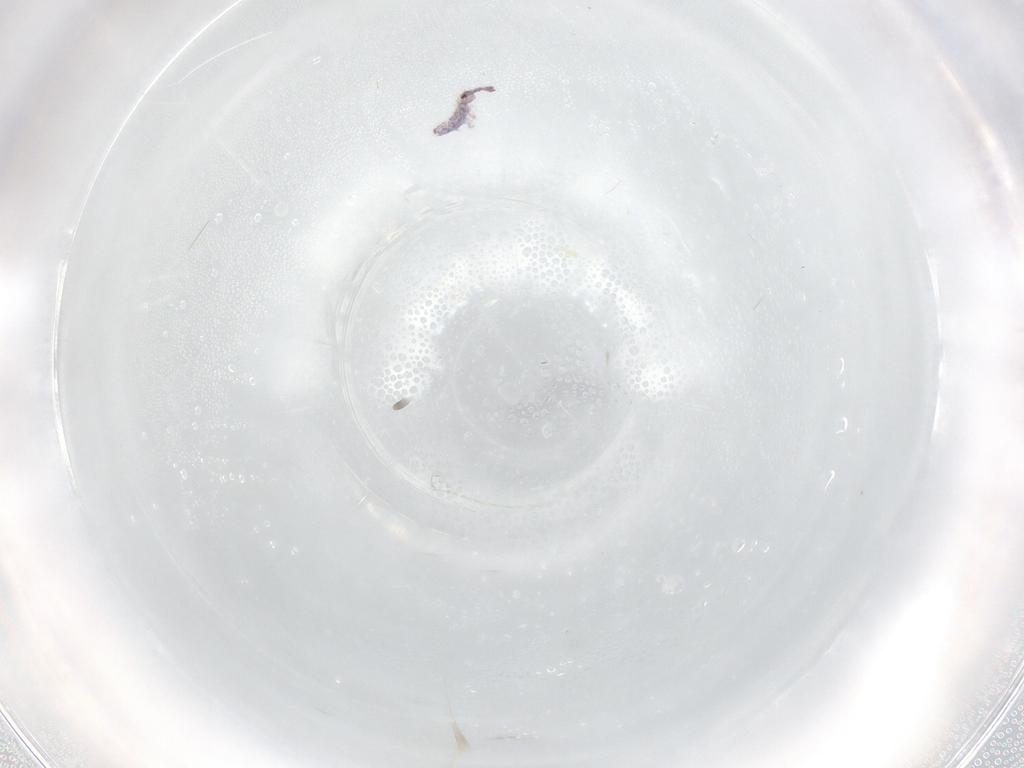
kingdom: Animalia
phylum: Arthropoda
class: Collembola
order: Entomobryomorpha
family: Entomobryidae
